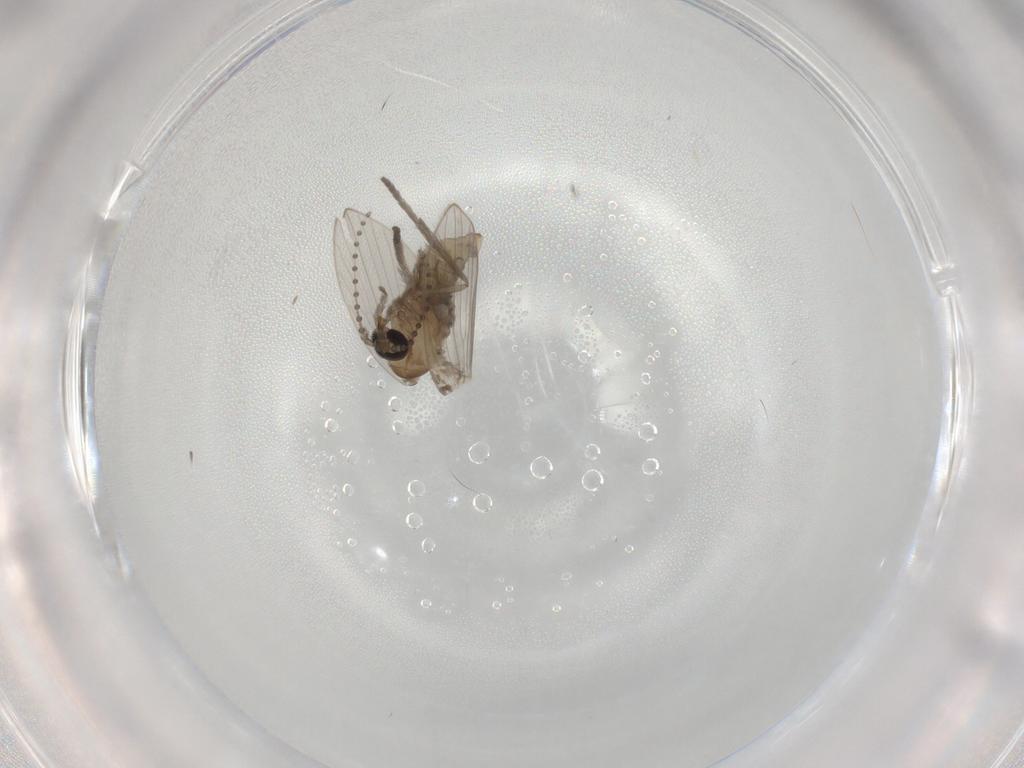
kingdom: Animalia
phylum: Arthropoda
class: Insecta
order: Diptera
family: Psychodidae
